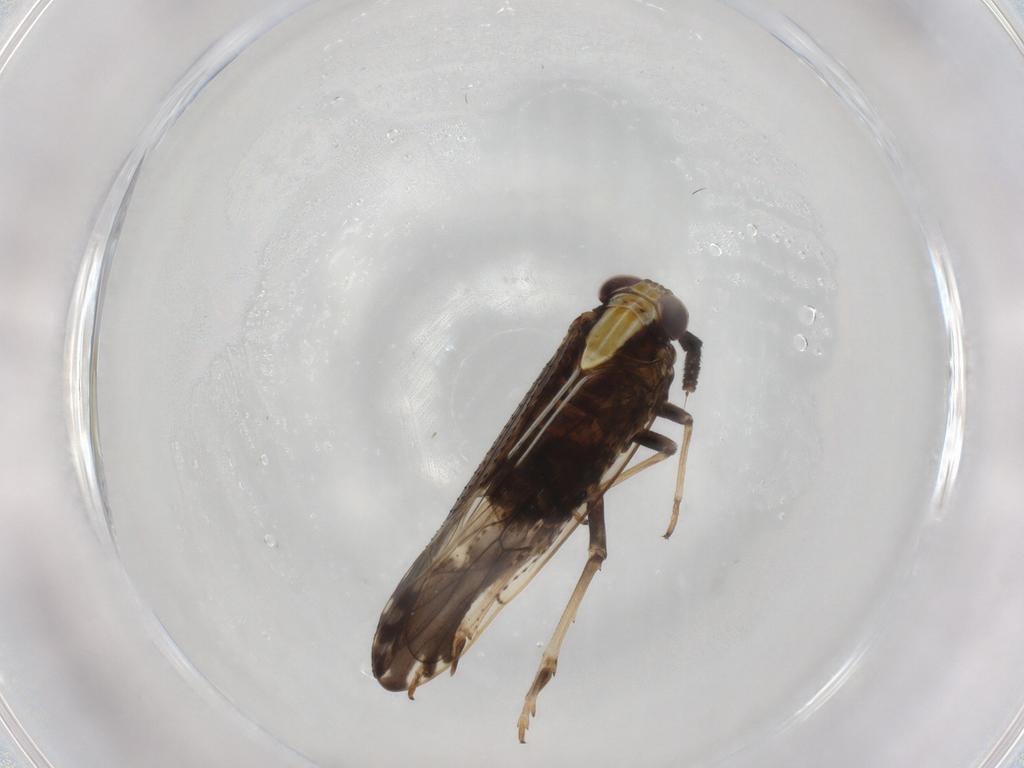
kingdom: Animalia
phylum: Arthropoda
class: Insecta
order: Hemiptera
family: Delphacidae
